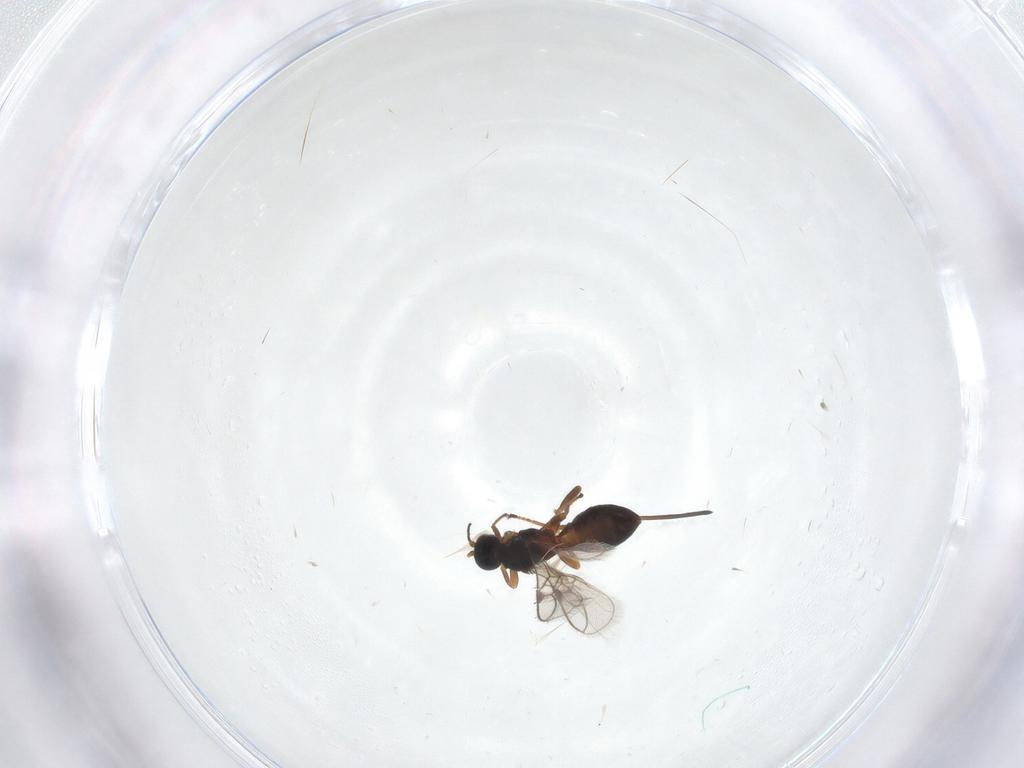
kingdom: Animalia
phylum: Arthropoda
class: Insecta
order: Hymenoptera
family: Braconidae
